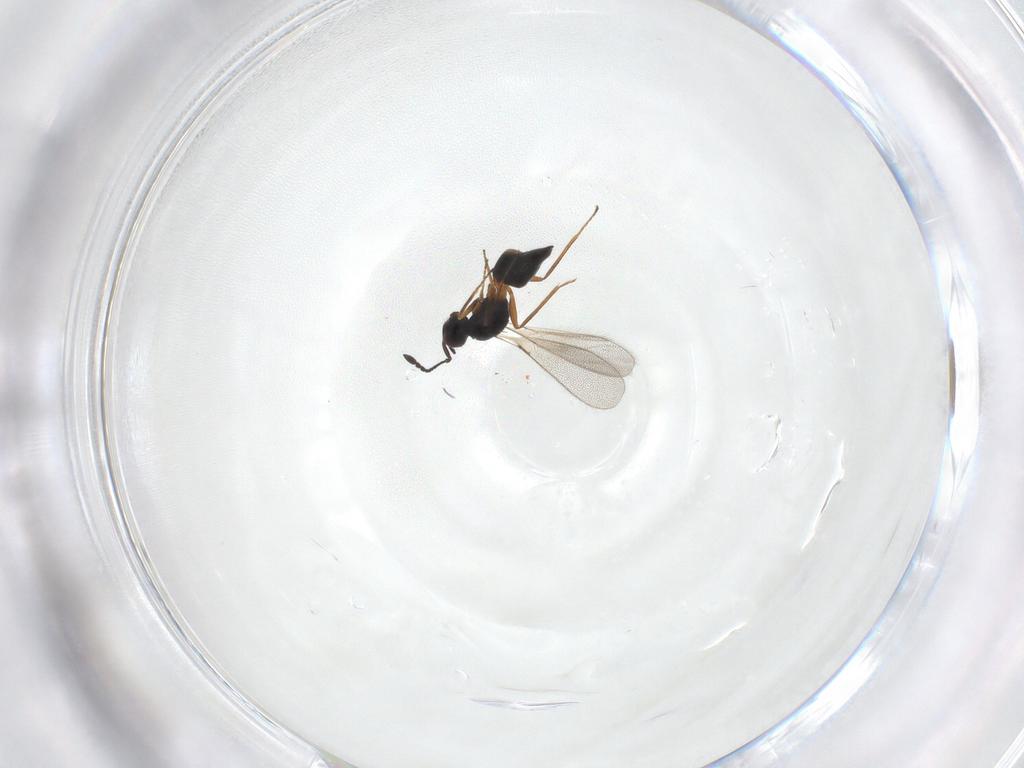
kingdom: Animalia
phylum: Arthropoda
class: Insecta
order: Hymenoptera
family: Mymaridae
